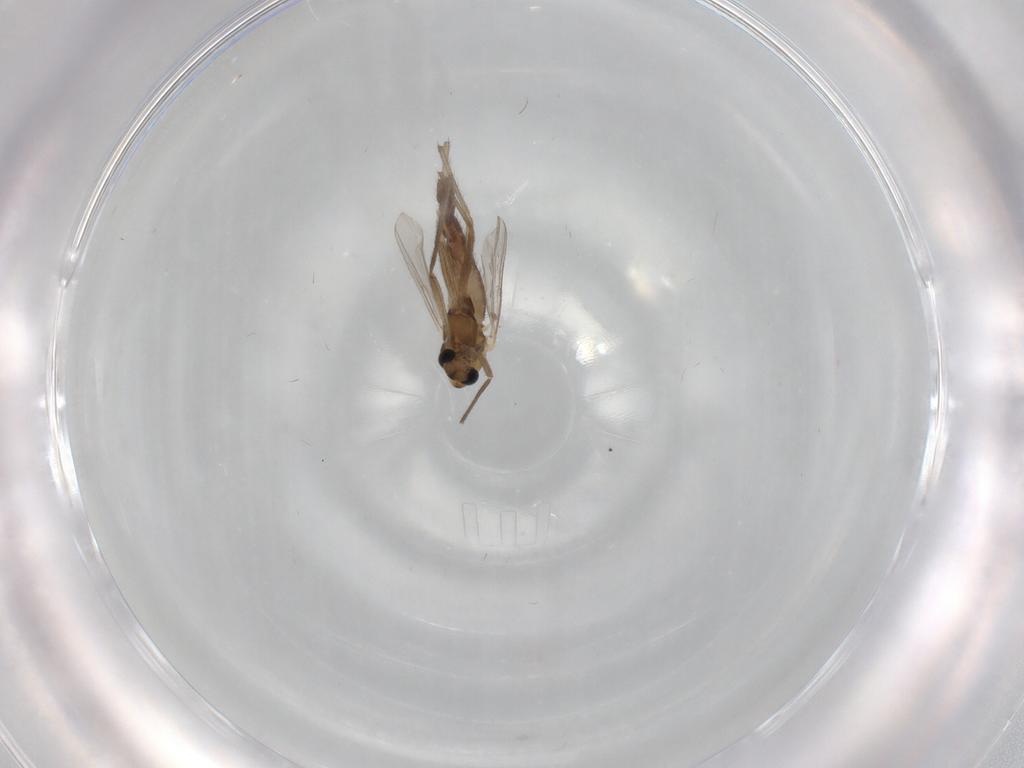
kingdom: Animalia
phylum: Arthropoda
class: Insecta
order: Diptera
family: Chironomidae
